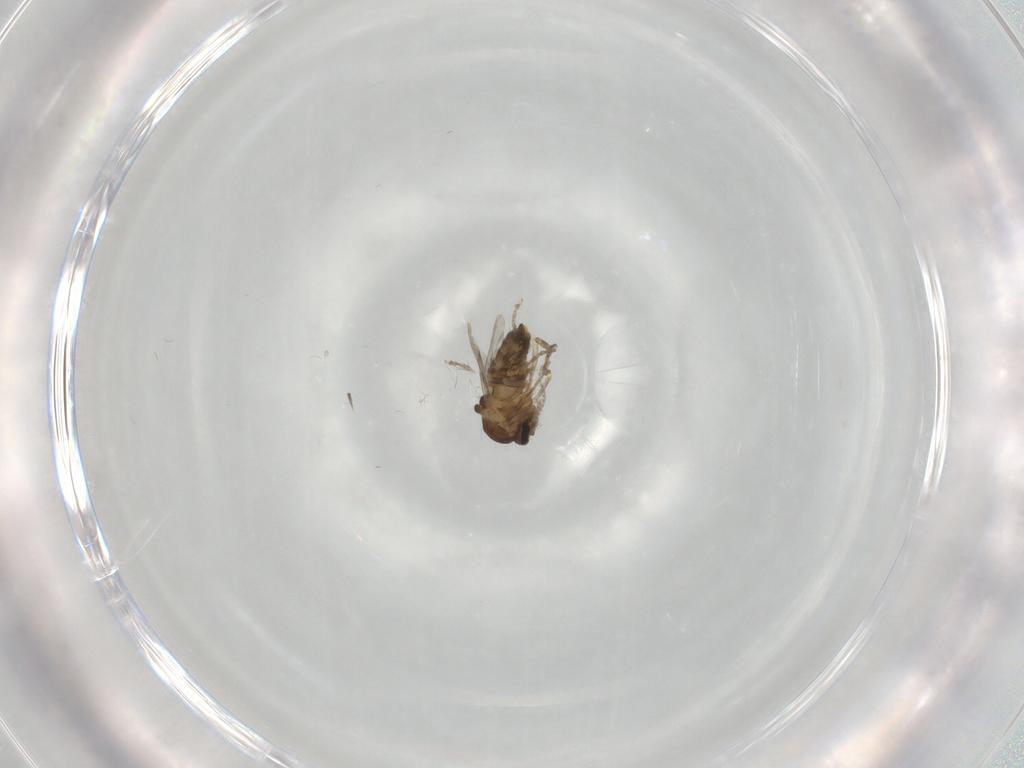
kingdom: Animalia
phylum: Arthropoda
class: Insecta
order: Diptera
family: Ceratopogonidae
